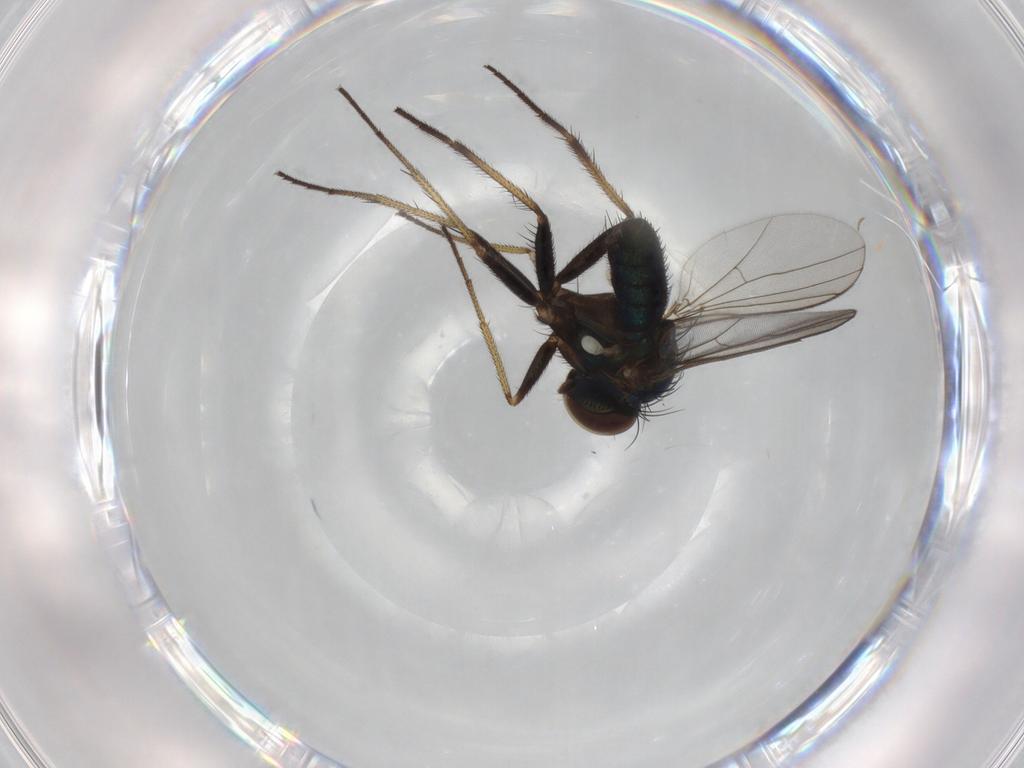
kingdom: Animalia
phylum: Arthropoda
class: Insecta
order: Diptera
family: Dolichopodidae
